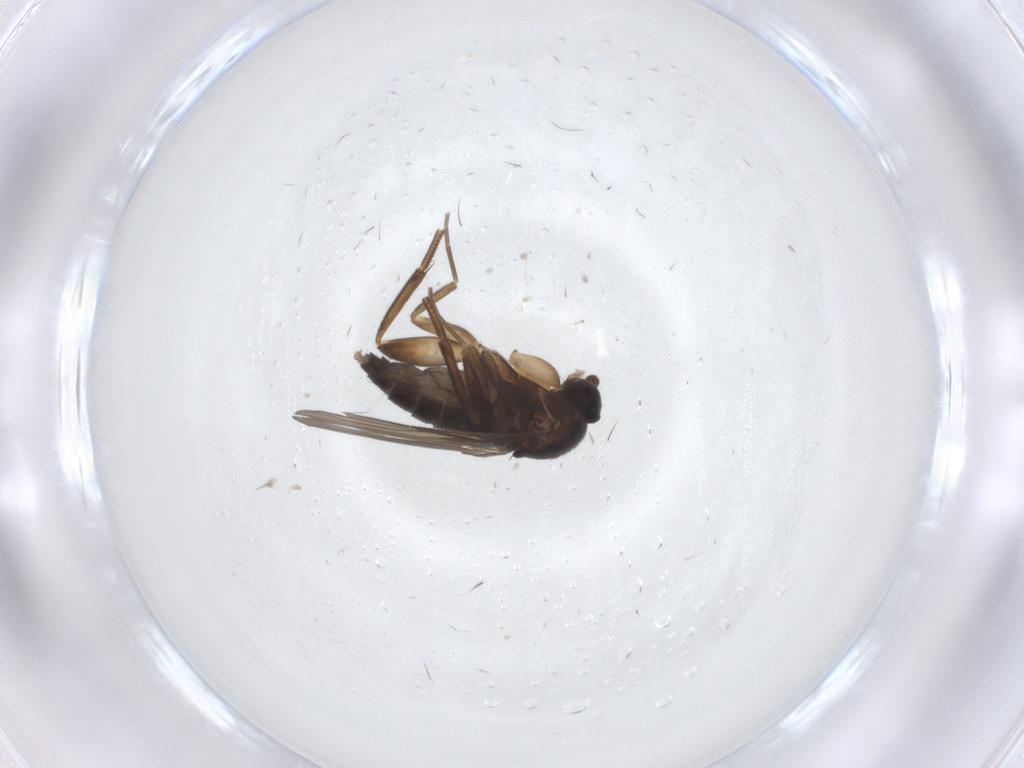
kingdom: Animalia
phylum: Arthropoda
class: Insecta
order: Diptera
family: Phoridae
